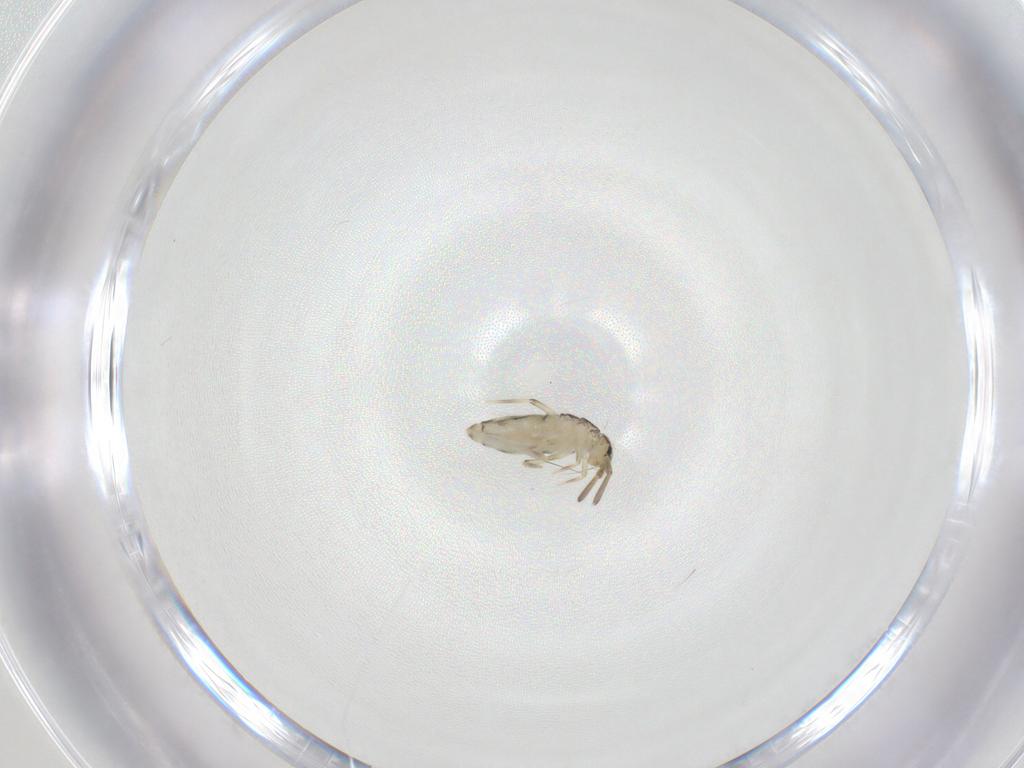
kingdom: Animalia
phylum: Arthropoda
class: Collembola
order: Entomobryomorpha
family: Entomobryidae
